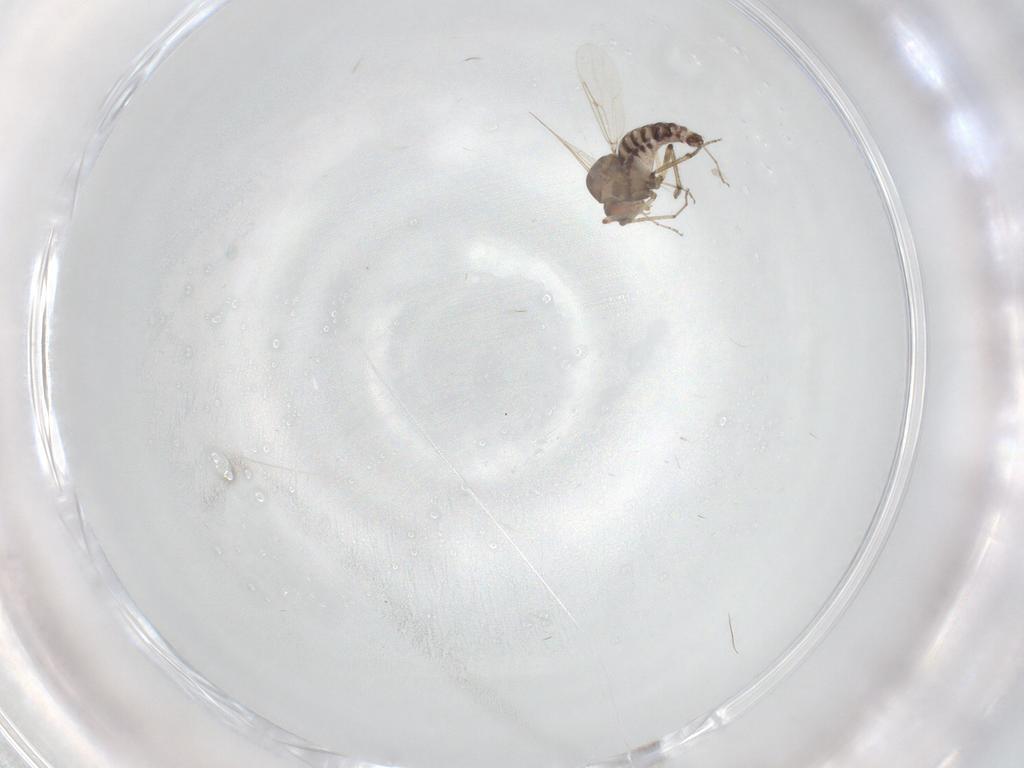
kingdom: Animalia
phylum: Arthropoda
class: Insecta
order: Diptera
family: Ceratopogonidae
